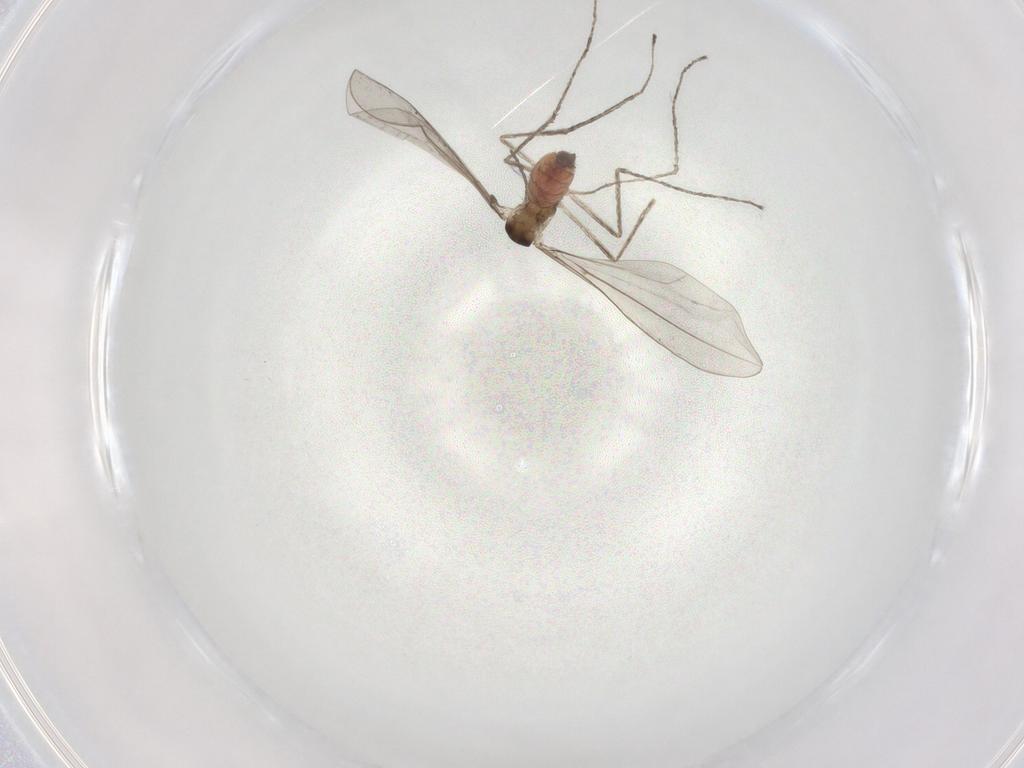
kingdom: Animalia
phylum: Arthropoda
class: Insecta
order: Diptera
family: Cecidomyiidae
